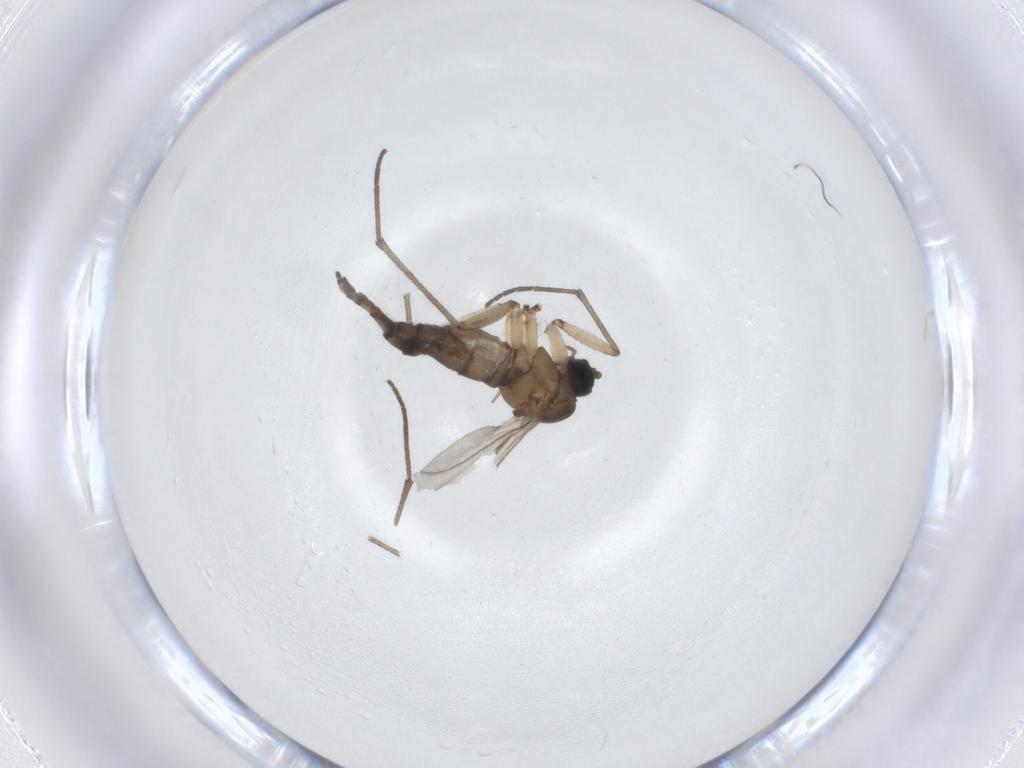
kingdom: Animalia
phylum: Arthropoda
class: Insecta
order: Diptera
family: Sciaridae
